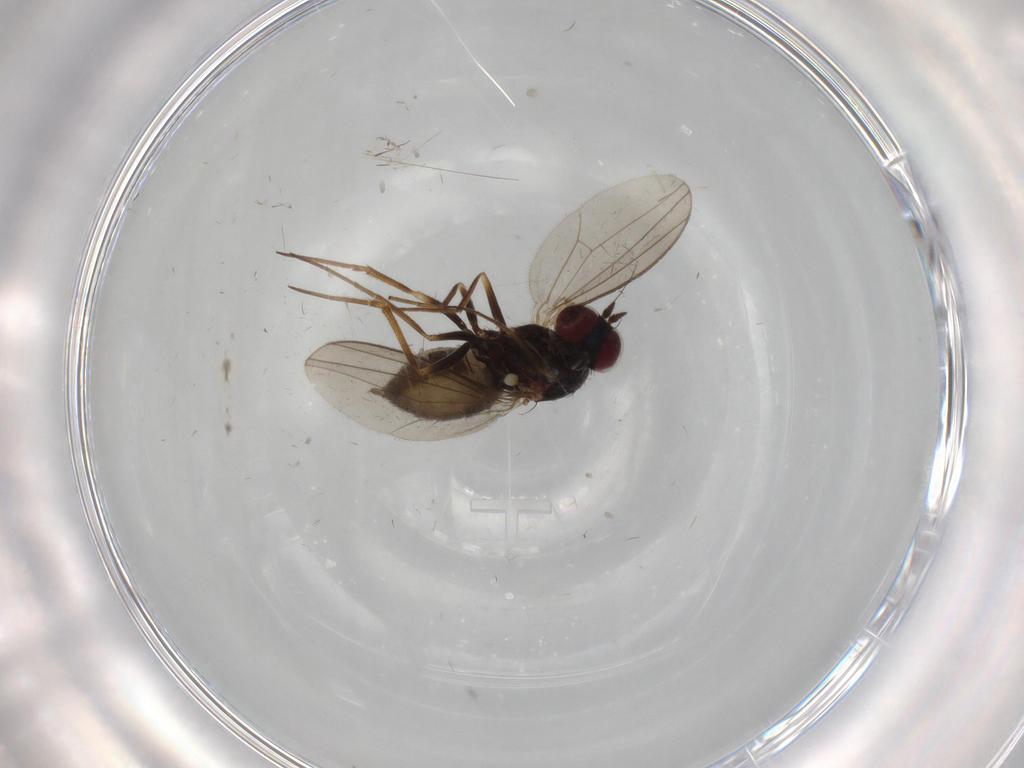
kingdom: Animalia
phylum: Arthropoda
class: Insecta
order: Diptera
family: Dolichopodidae
